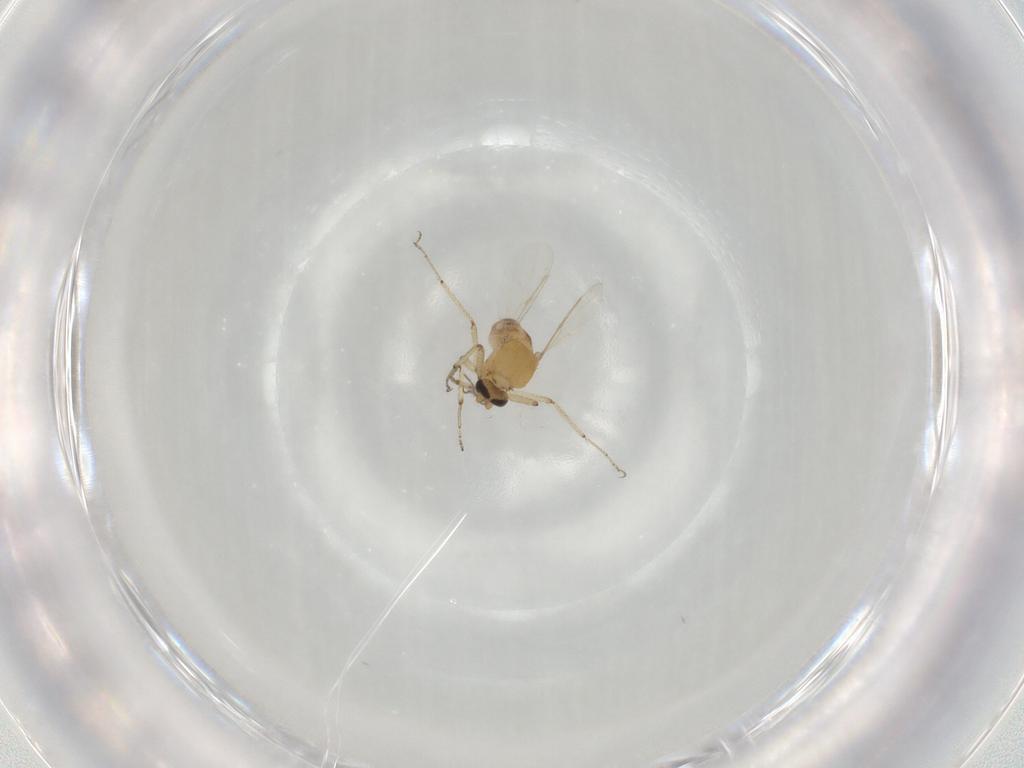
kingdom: Animalia
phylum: Arthropoda
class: Insecta
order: Diptera
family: Ceratopogonidae
